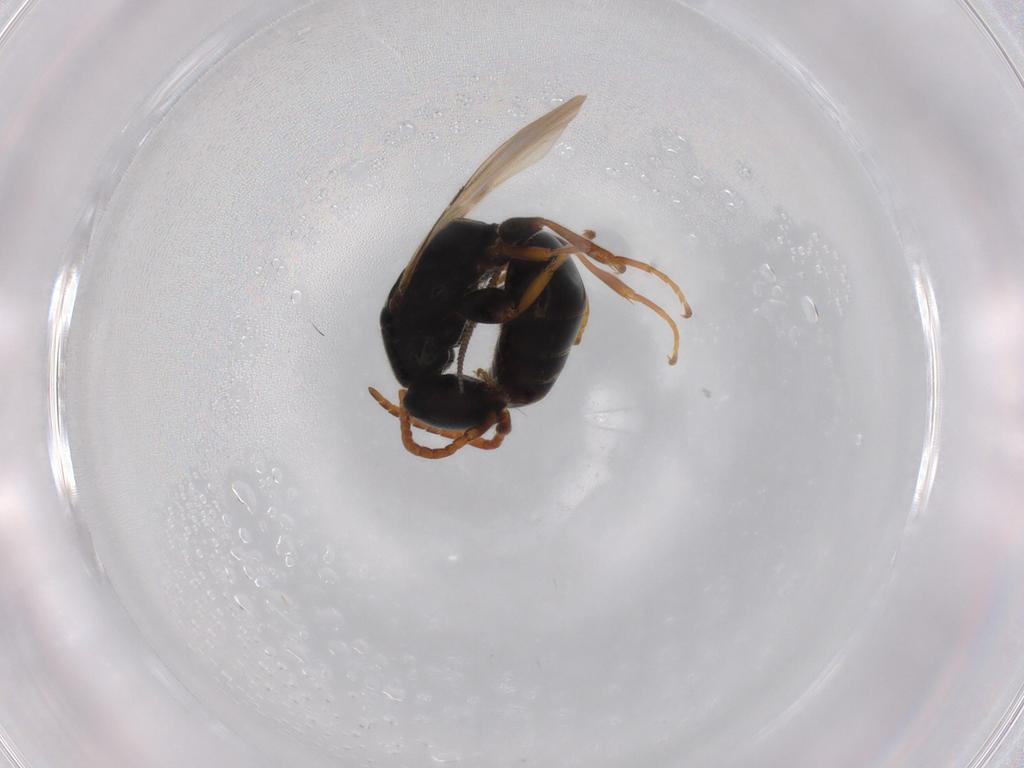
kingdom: Animalia
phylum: Arthropoda
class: Insecta
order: Hymenoptera
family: Bethylidae
